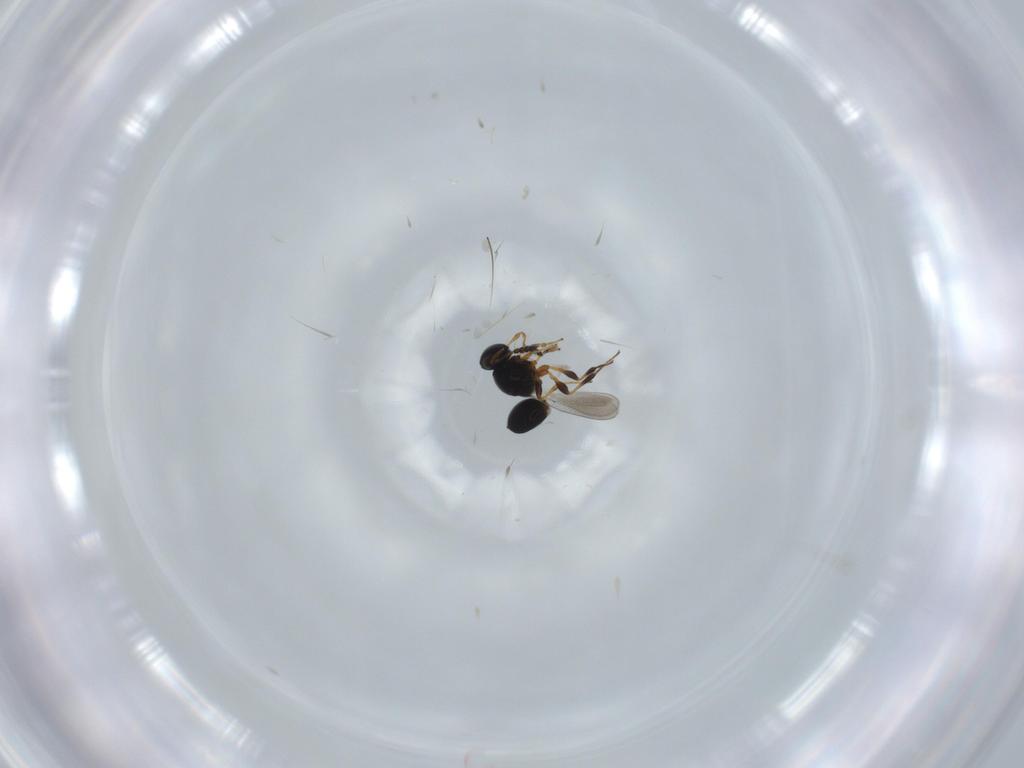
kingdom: Animalia
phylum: Arthropoda
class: Insecta
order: Hymenoptera
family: Platygastridae
